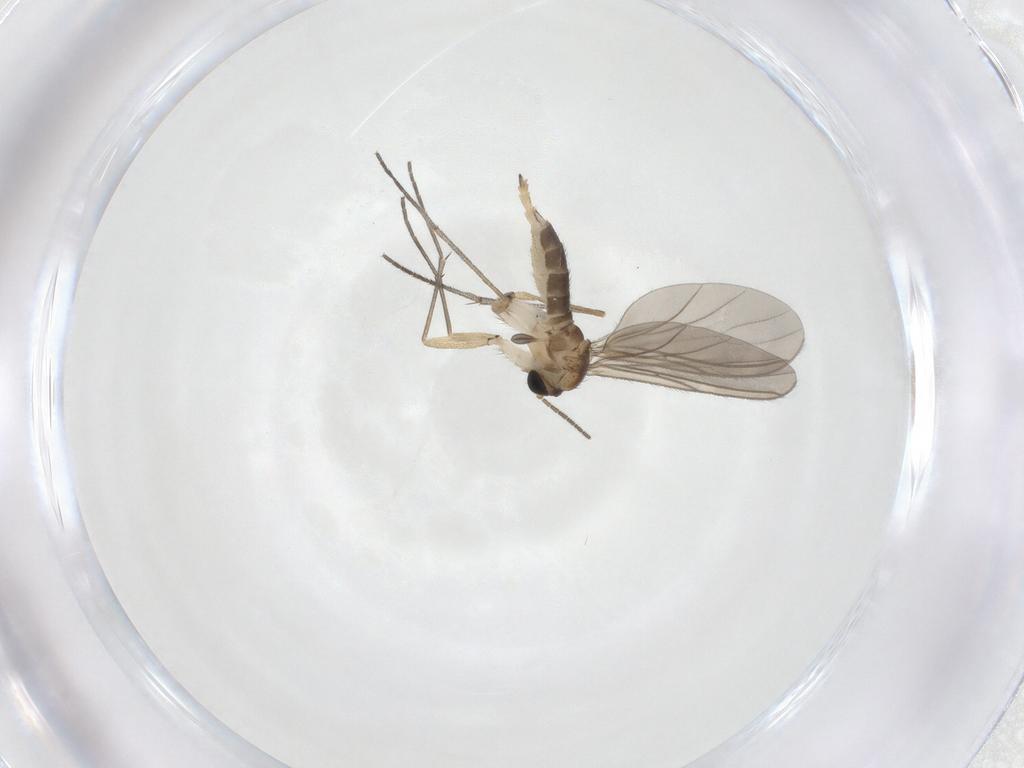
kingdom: Animalia
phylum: Arthropoda
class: Insecta
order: Diptera
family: Sciaridae
